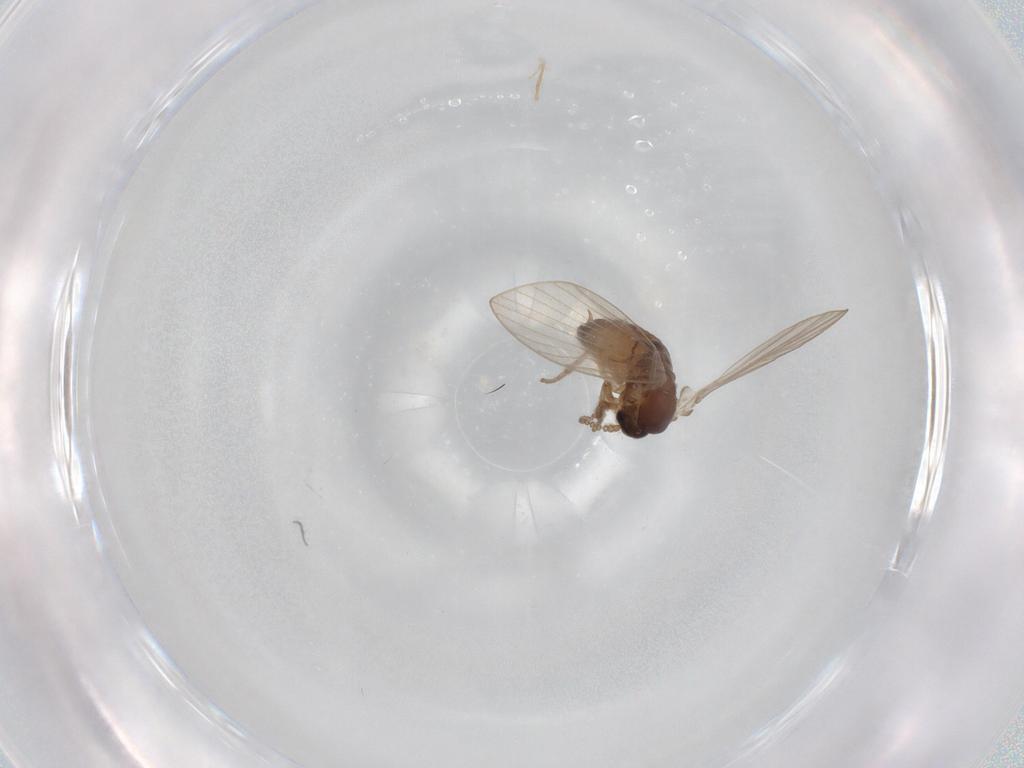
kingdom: Animalia
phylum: Arthropoda
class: Insecta
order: Diptera
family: Psychodidae
